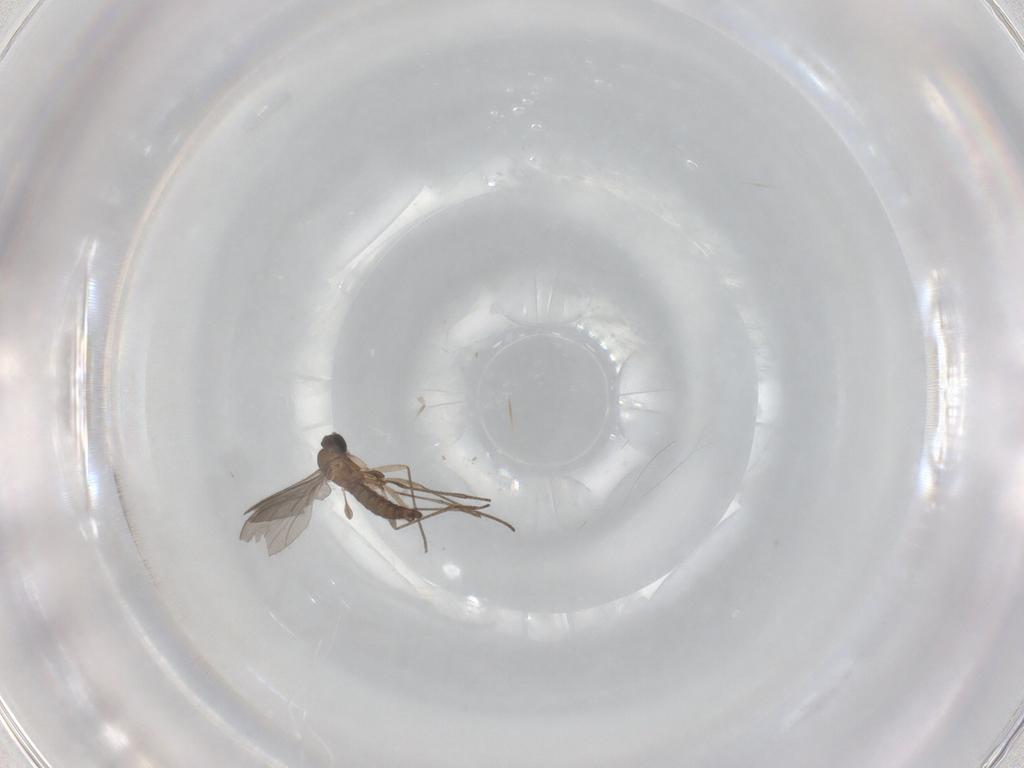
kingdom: Animalia
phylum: Arthropoda
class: Insecta
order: Diptera
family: Sciaridae
